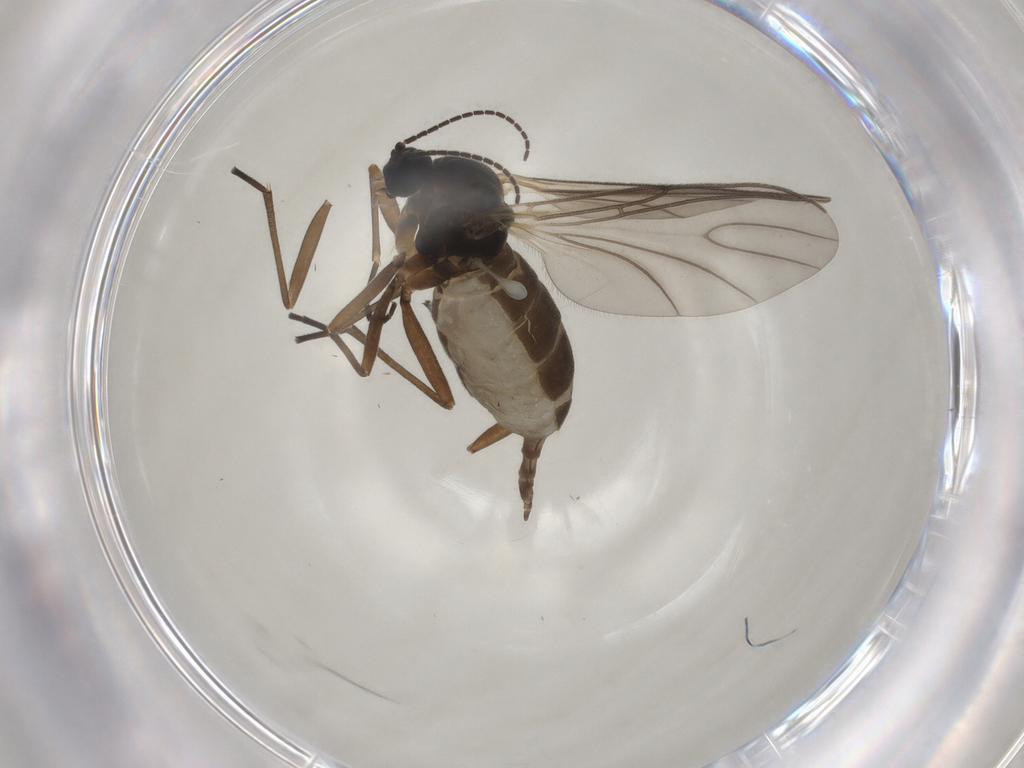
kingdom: Animalia
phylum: Arthropoda
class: Insecta
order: Diptera
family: Sciaridae
